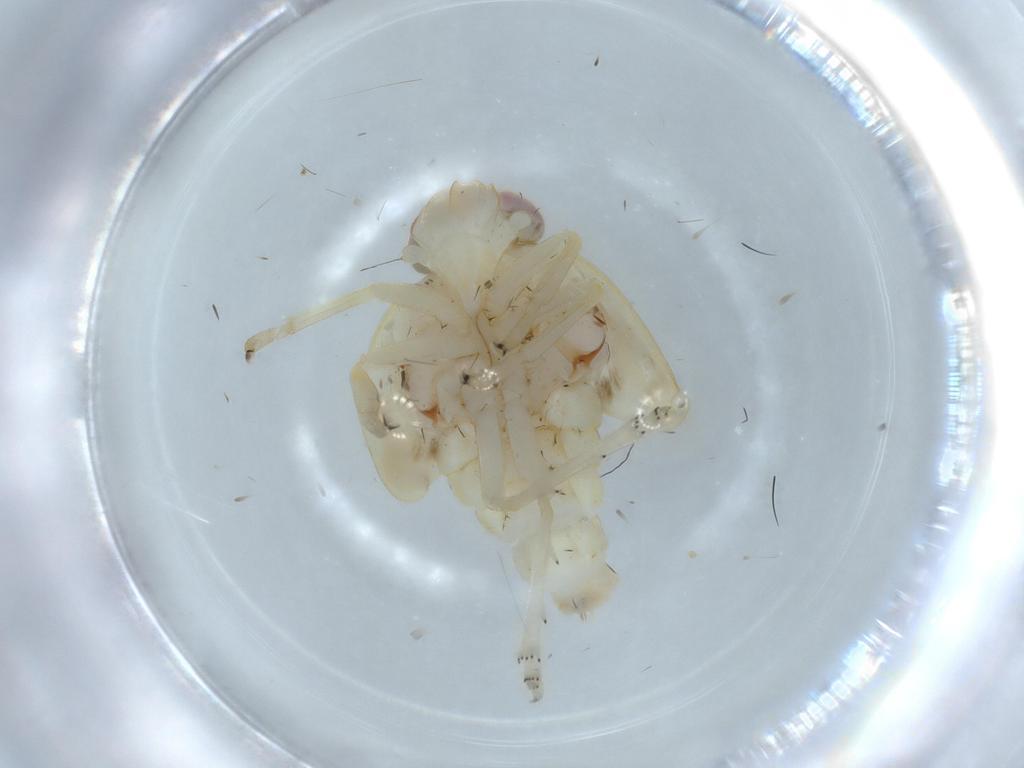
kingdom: Animalia
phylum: Arthropoda
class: Insecta
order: Hemiptera
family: Nogodinidae
